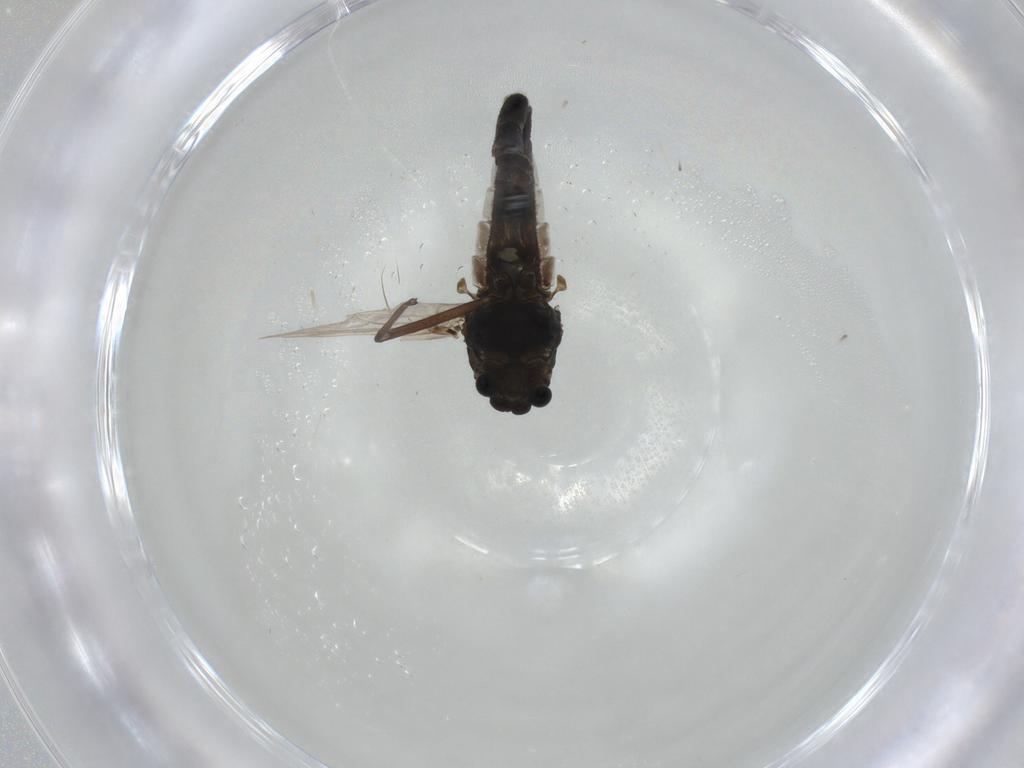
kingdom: Animalia
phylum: Arthropoda
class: Insecta
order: Diptera
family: Chironomidae
